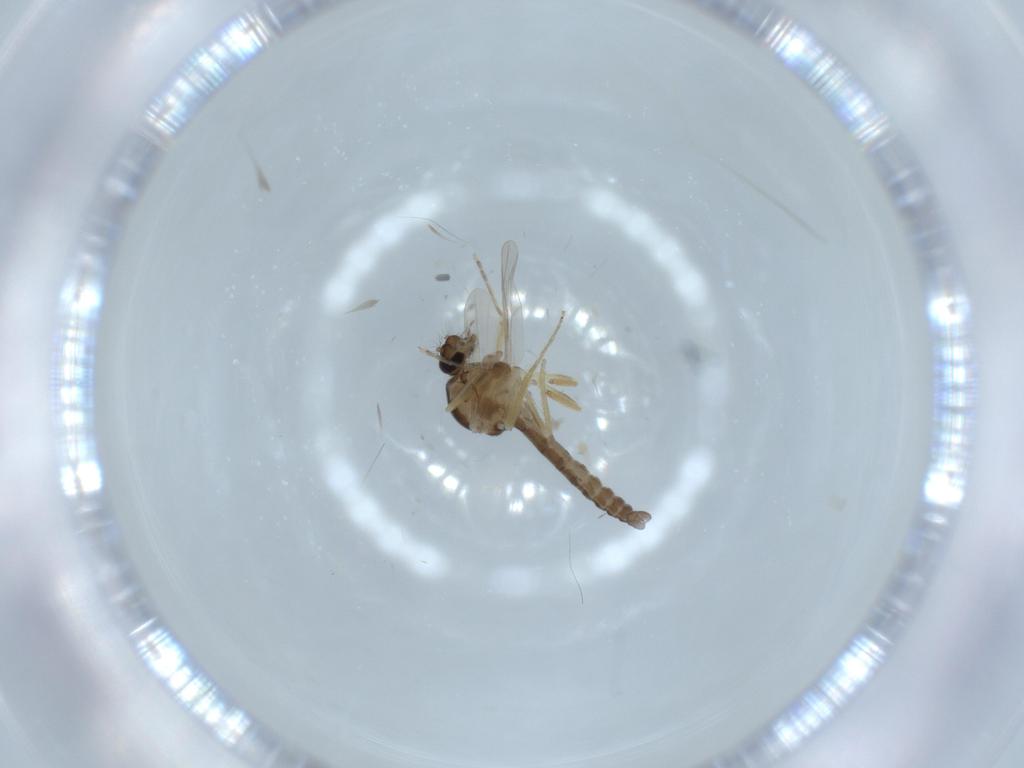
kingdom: Animalia
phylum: Arthropoda
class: Insecta
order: Diptera
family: Ceratopogonidae
